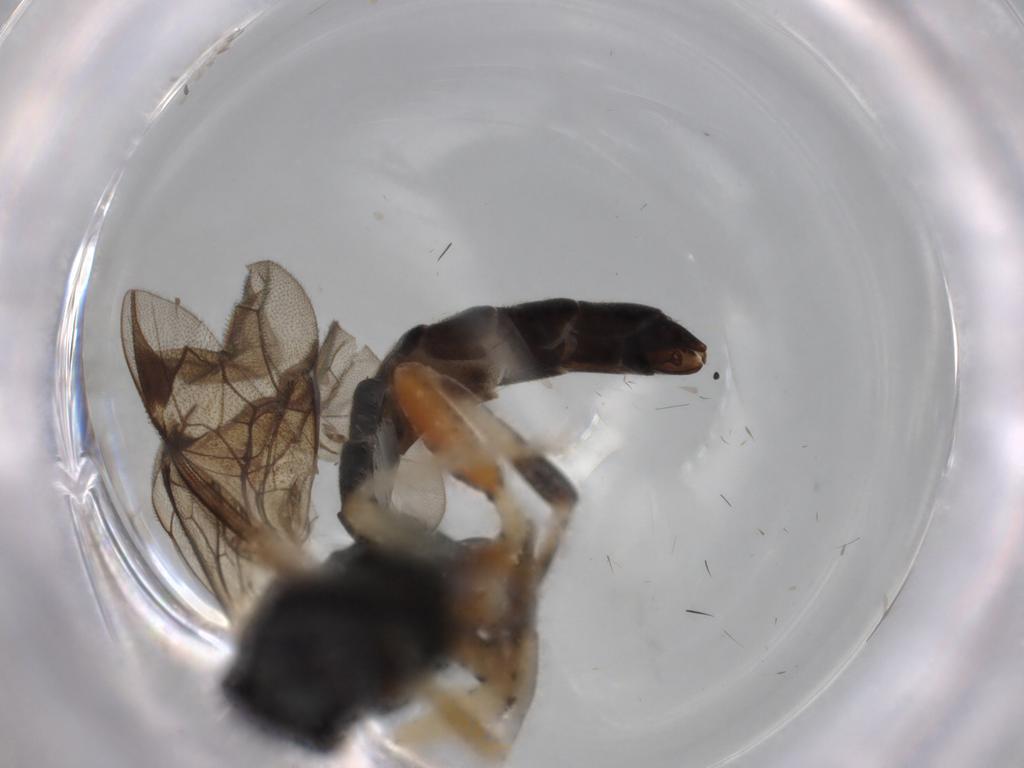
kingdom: Animalia
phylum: Arthropoda
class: Insecta
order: Hymenoptera
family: Ichneumonidae
